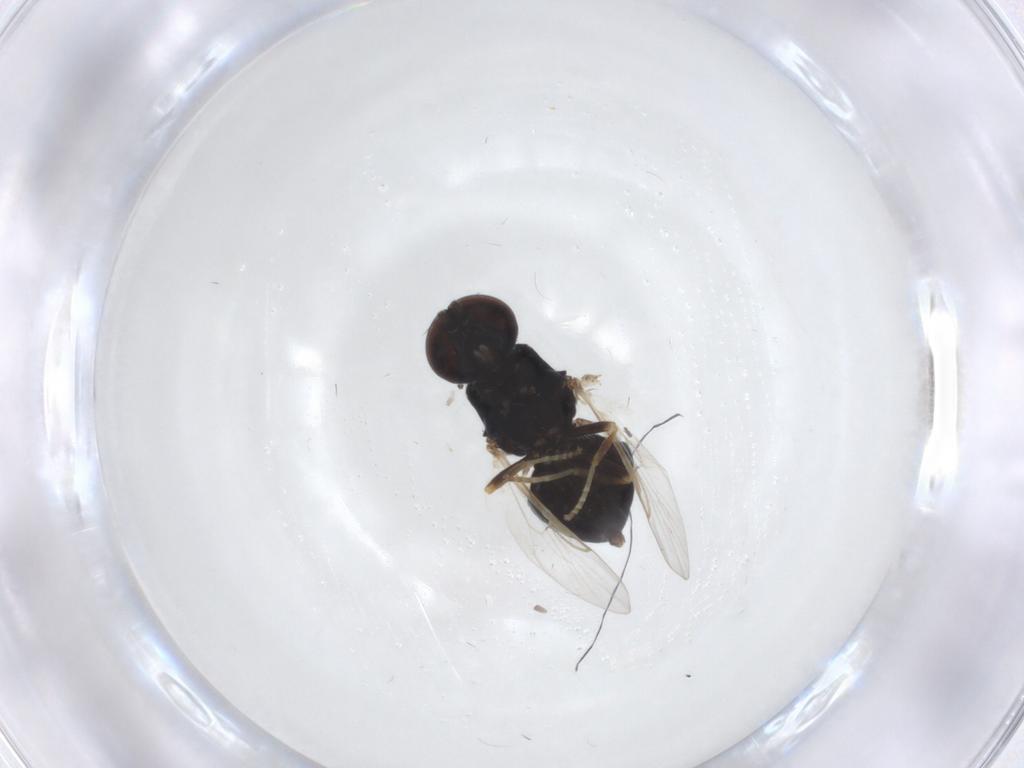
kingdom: Animalia
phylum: Arthropoda
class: Insecta
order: Diptera
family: Stratiomyidae
